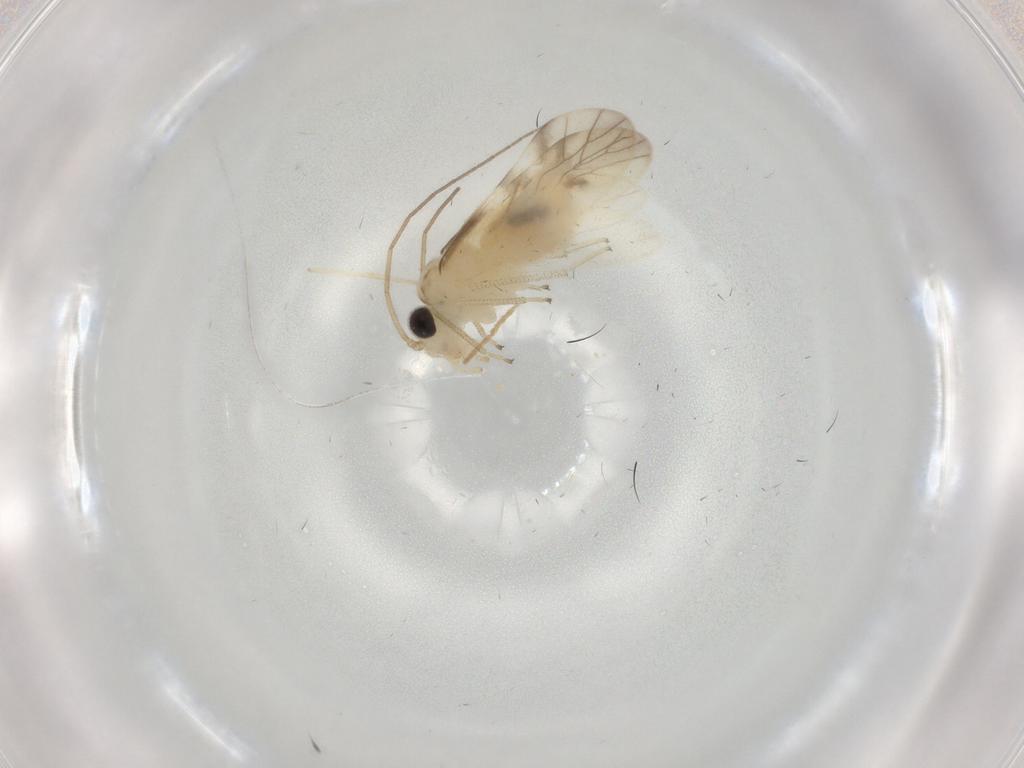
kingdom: Animalia
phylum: Arthropoda
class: Insecta
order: Psocodea
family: Caeciliusidae
